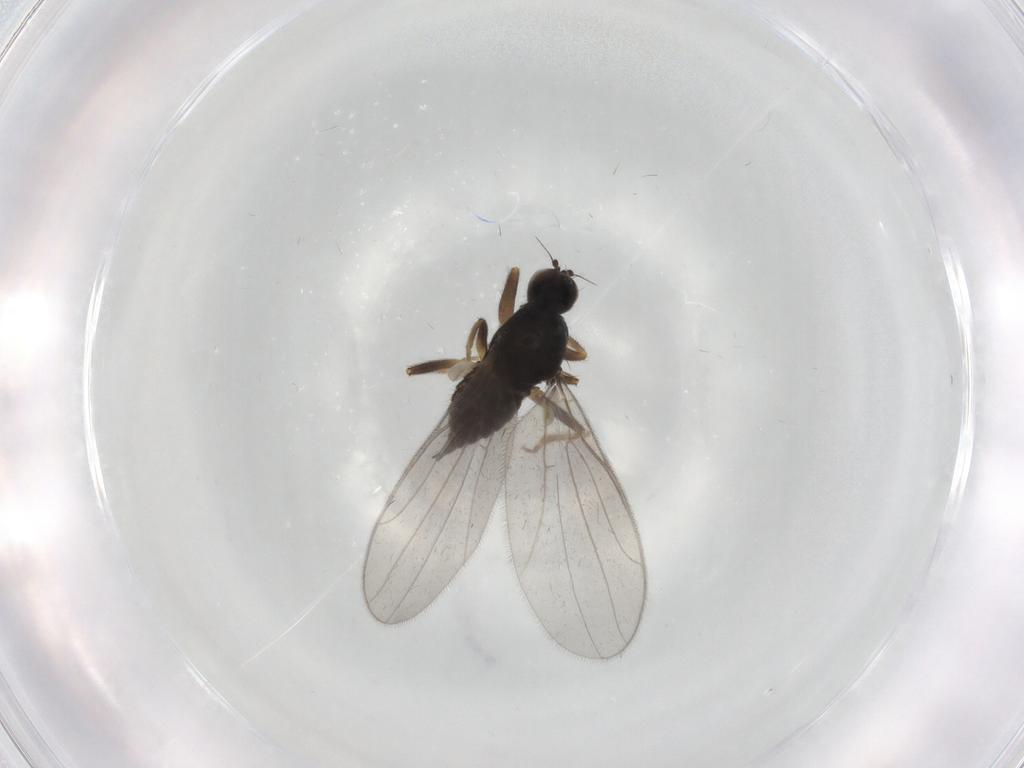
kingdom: Animalia
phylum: Arthropoda
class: Insecta
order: Diptera
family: Hybotidae
